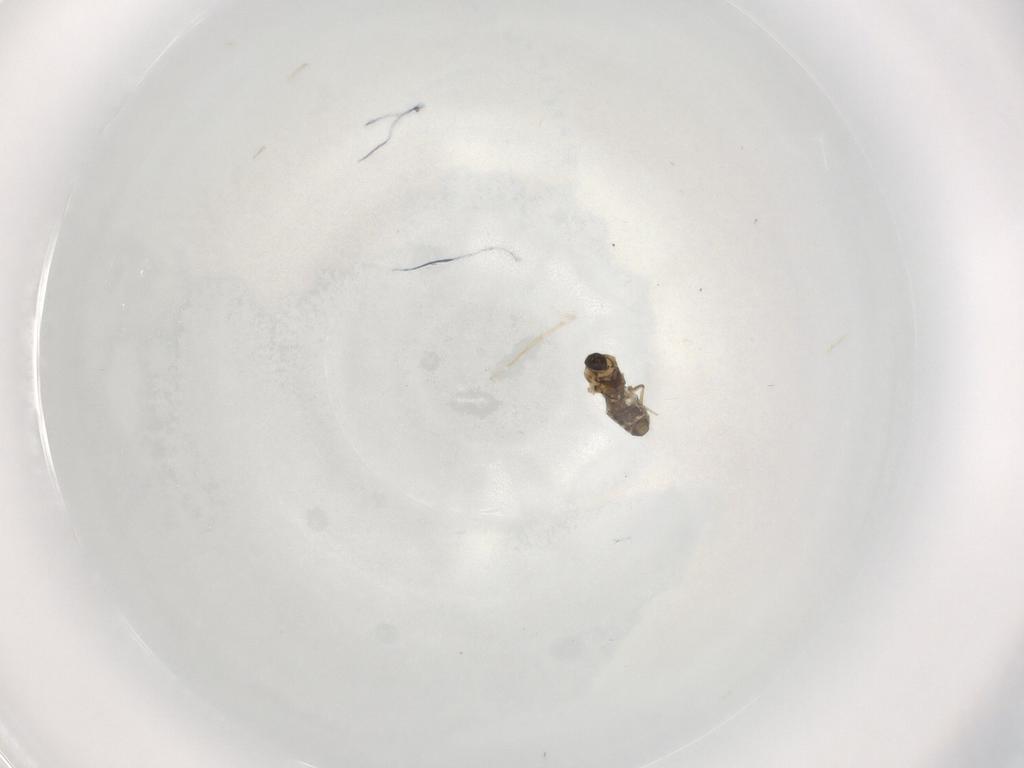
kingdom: Animalia
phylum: Arthropoda
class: Insecta
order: Diptera
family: Ceratopogonidae
